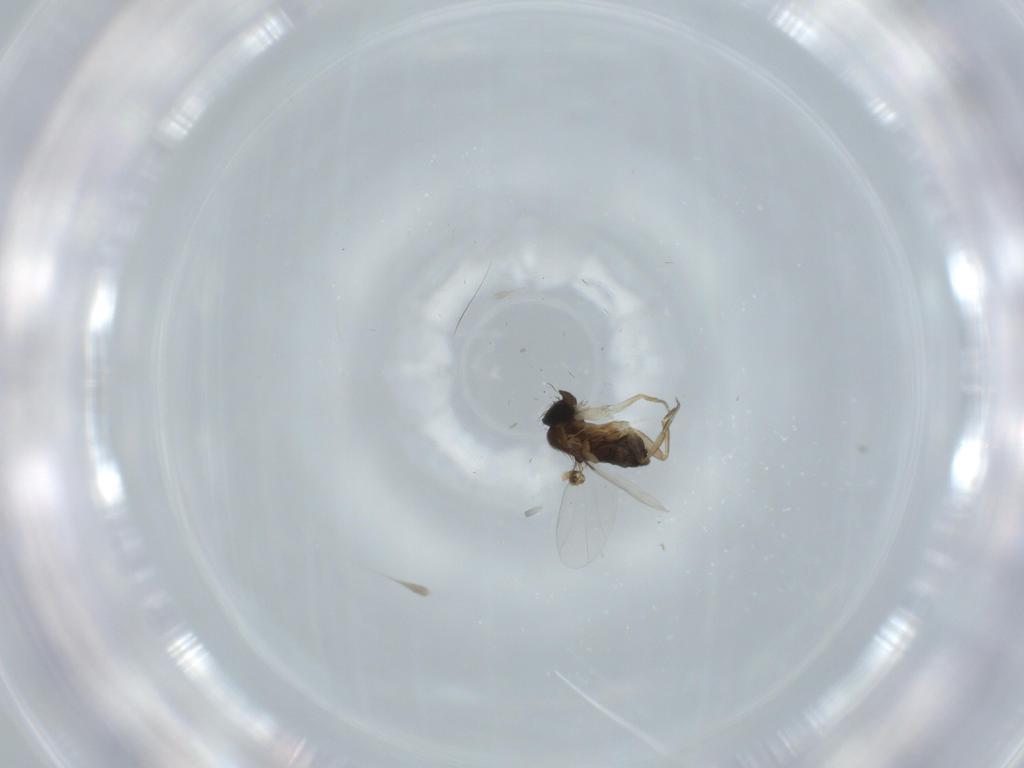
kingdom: Animalia
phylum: Arthropoda
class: Insecta
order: Diptera
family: Phoridae
